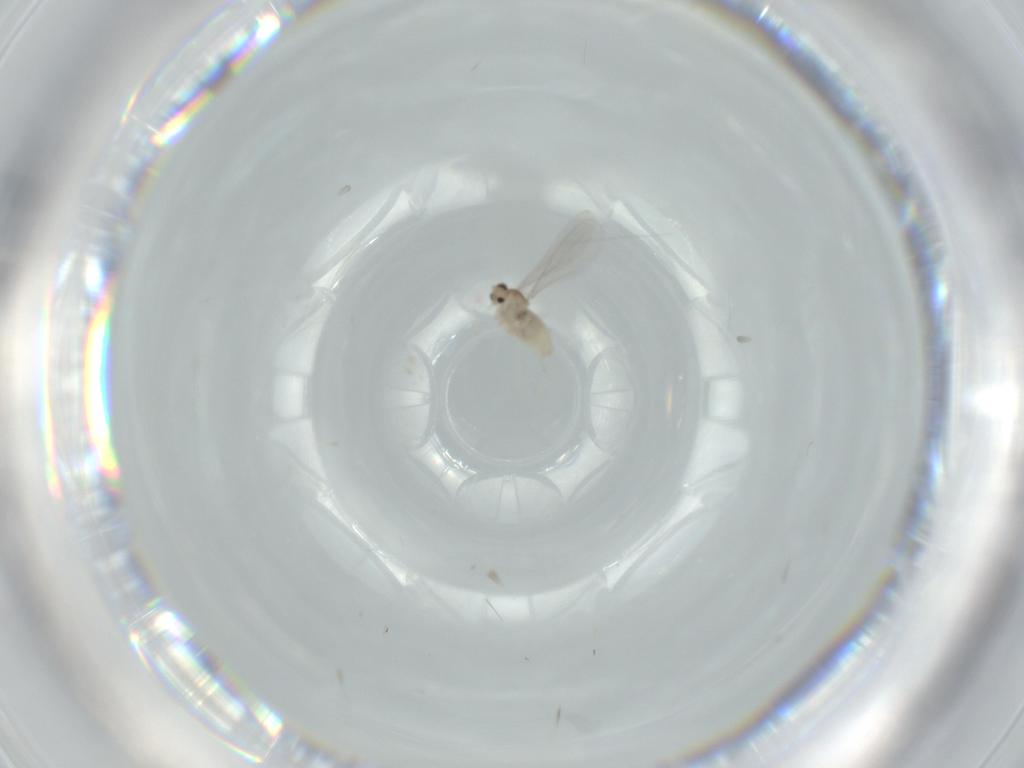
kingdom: Animalia
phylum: Arthropoda
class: Insecta
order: Diptera
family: Cecidomyiidae
